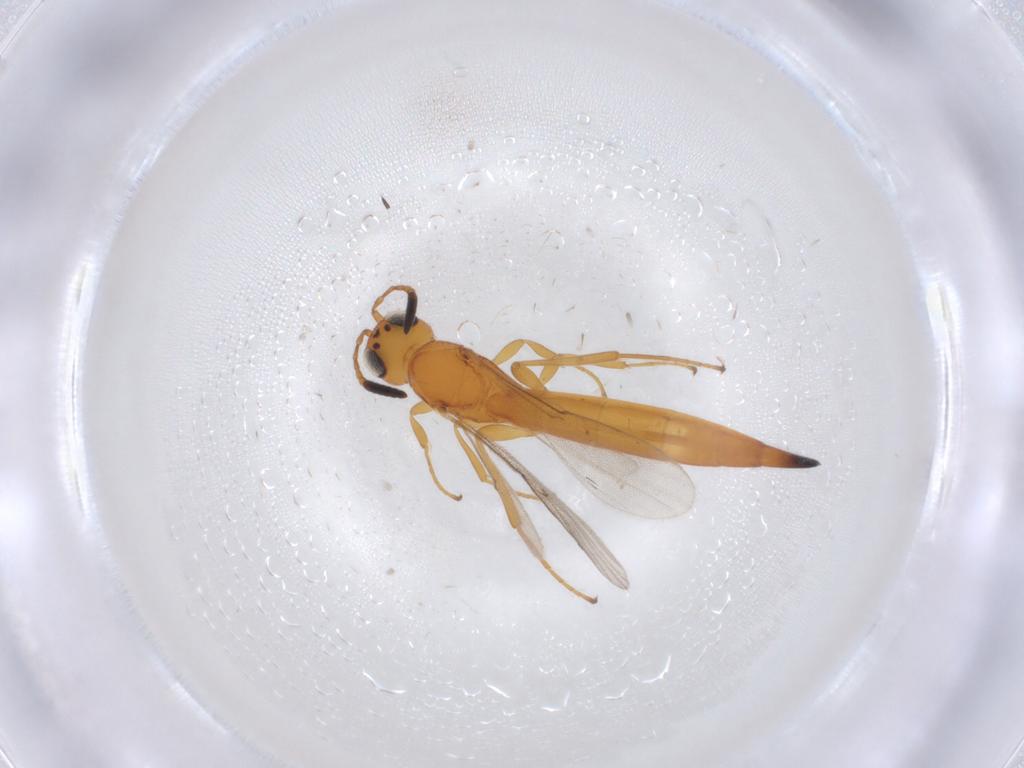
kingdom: Animalia
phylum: Arthropoda
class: Insecta
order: Hymenoptera
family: Scelionidae
